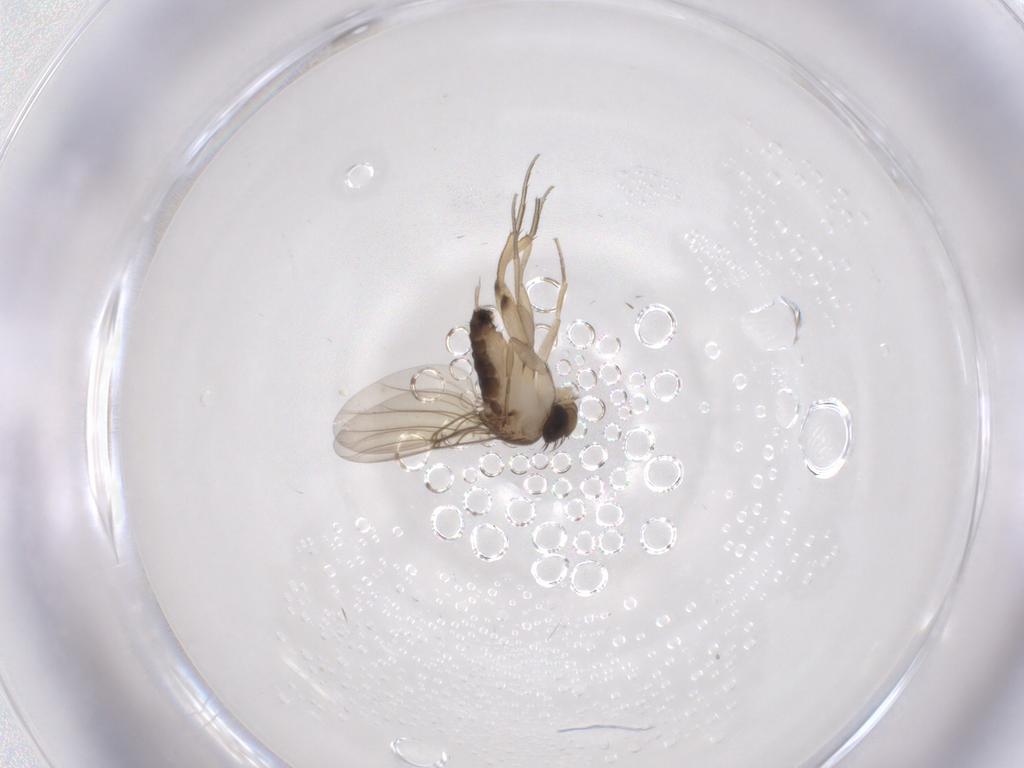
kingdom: Animalia
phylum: Arthropoda
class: Insecta
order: Diptera
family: Phoridae
